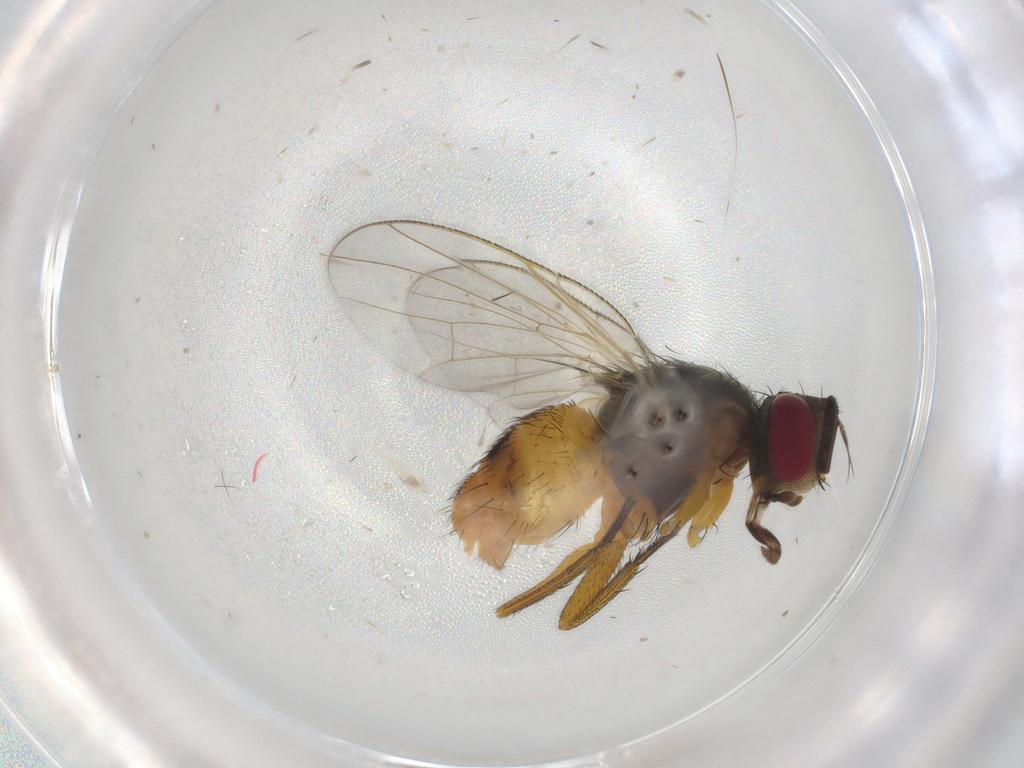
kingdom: Animalia
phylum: Arthropoda
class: Insecta
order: Diptera
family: Muscidae
